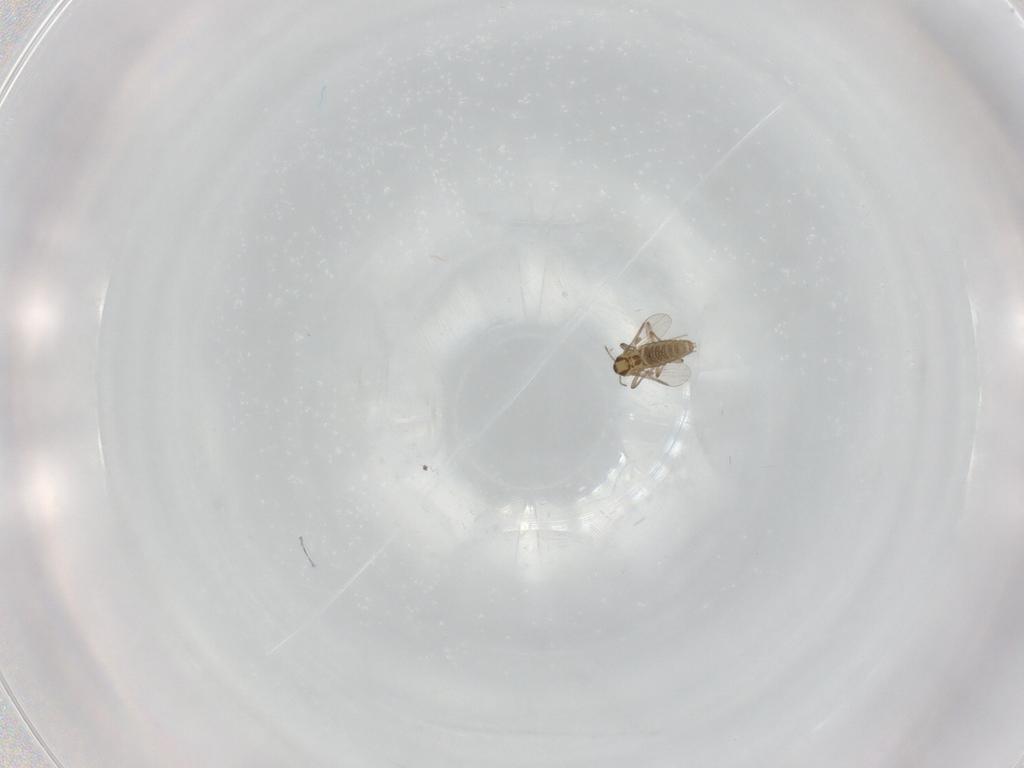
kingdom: Animalia
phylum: Arthropoda
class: Insecta
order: Diptera
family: Chironomidae
